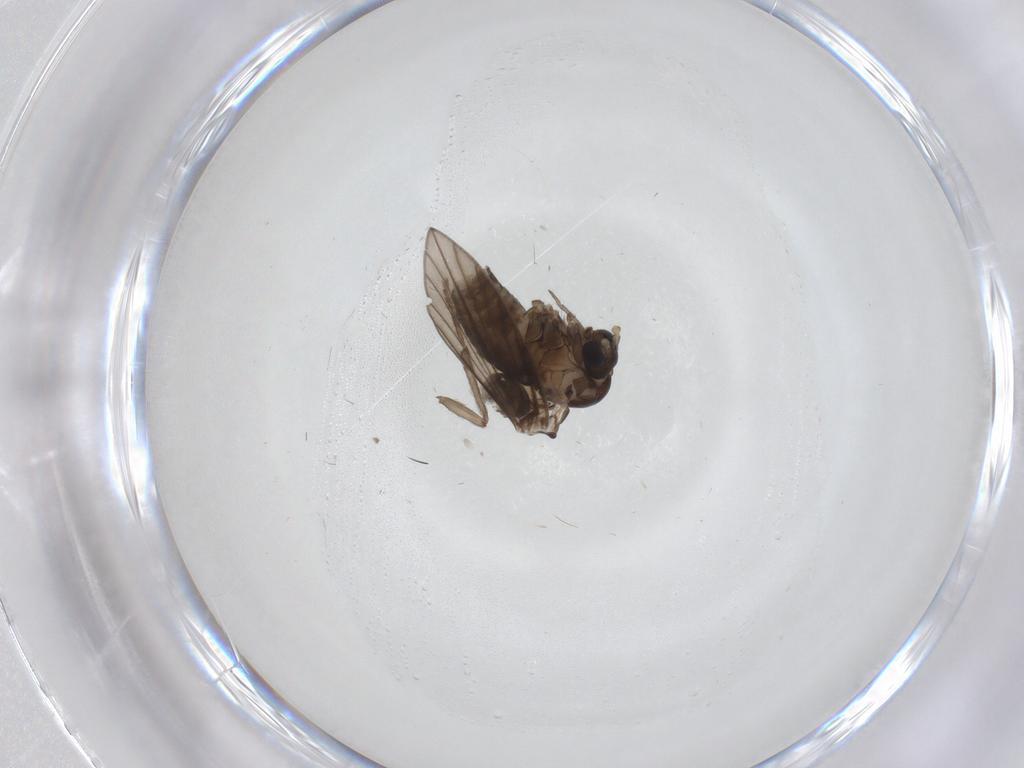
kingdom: Animalia
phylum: Arthropoda
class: Insecta
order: Diptera
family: Psychodidae
